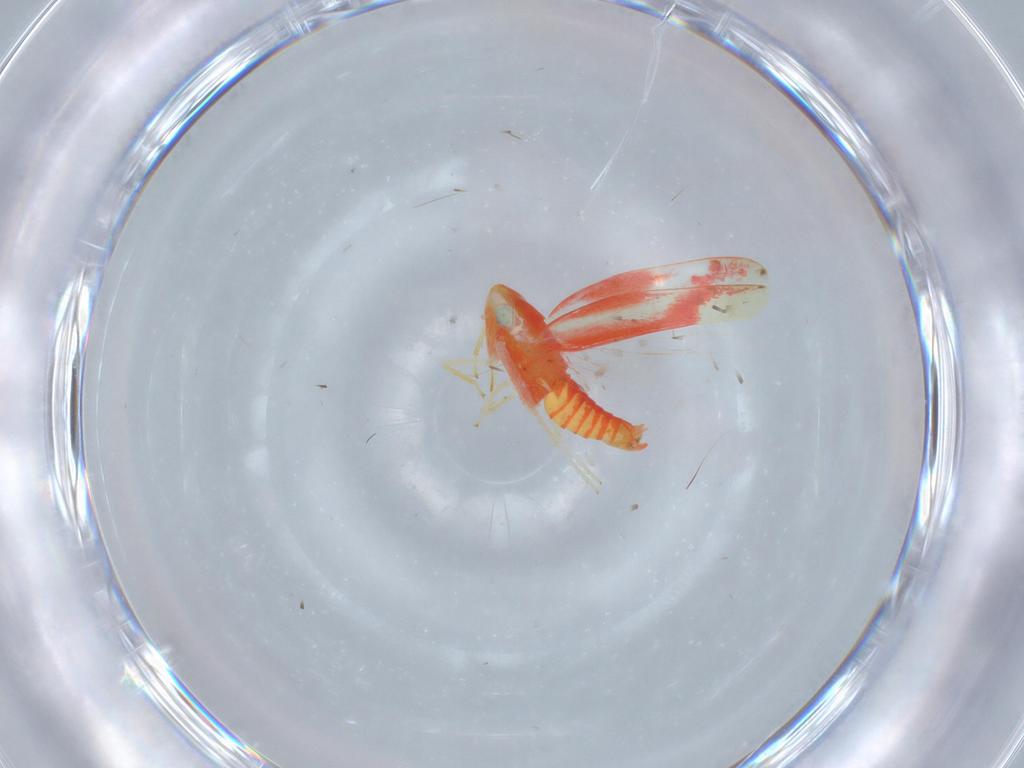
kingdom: Animalia
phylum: Arthropoda
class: Insecta
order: Hemiptera
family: Cicadellidae
